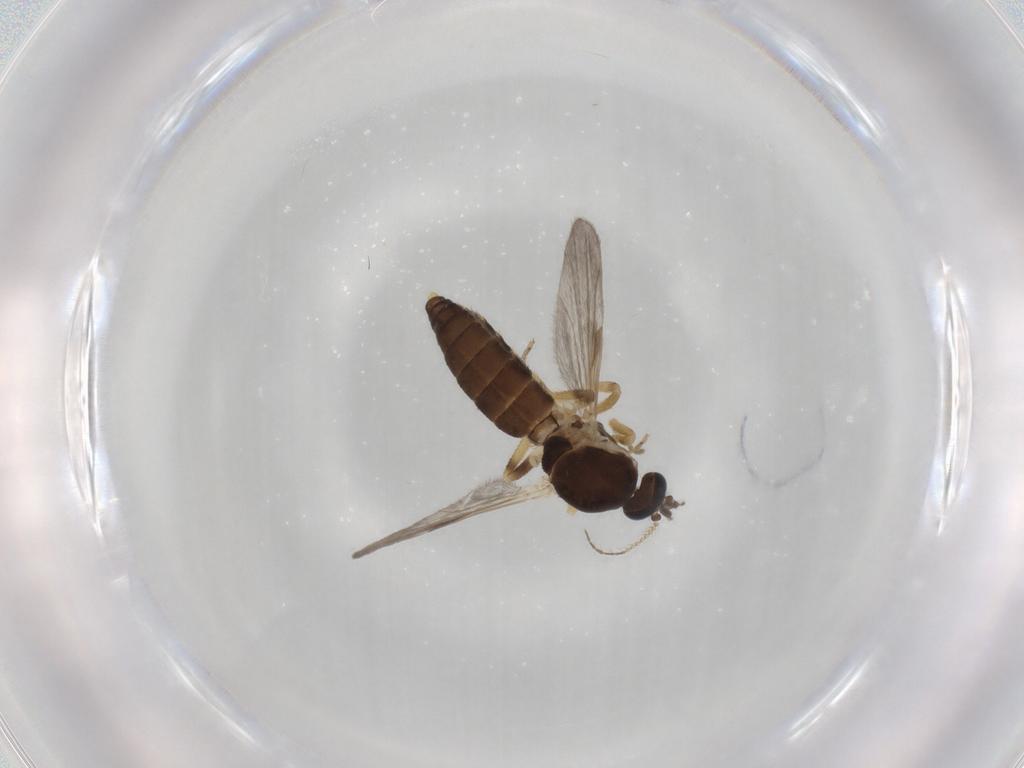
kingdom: Animalia
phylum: Arthropoda
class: Insecta
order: Diptera
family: Ceratopogonidae
